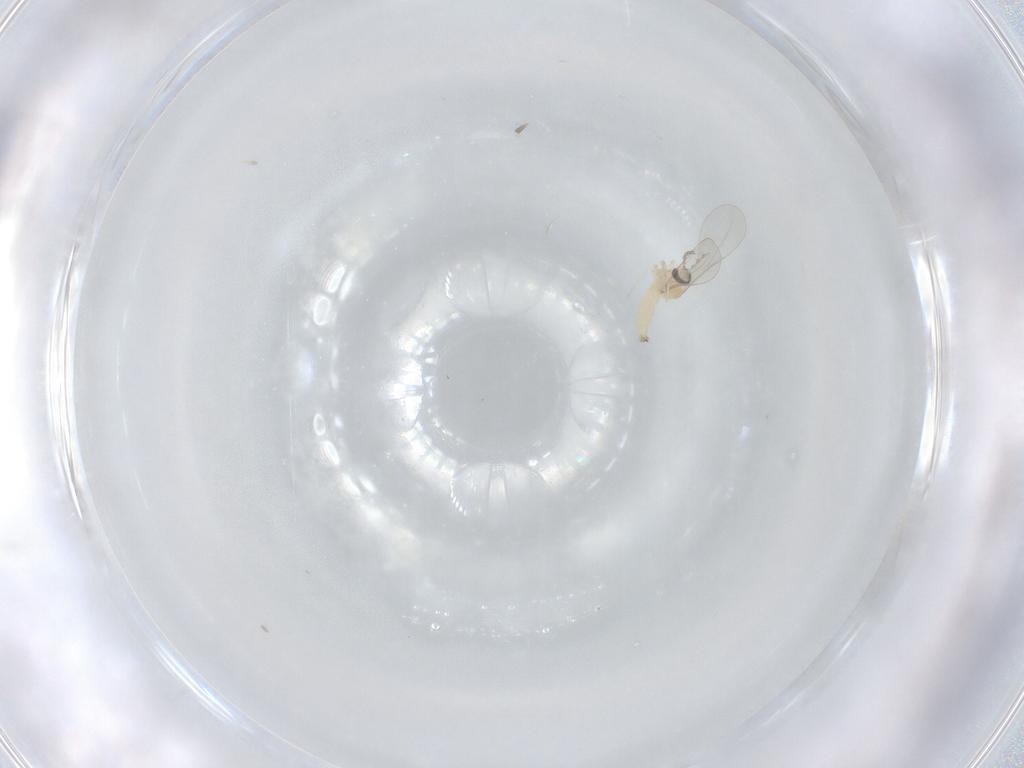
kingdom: Animalia
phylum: Arthropoda
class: Insecta
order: Diptera
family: Cecidomyiidae
